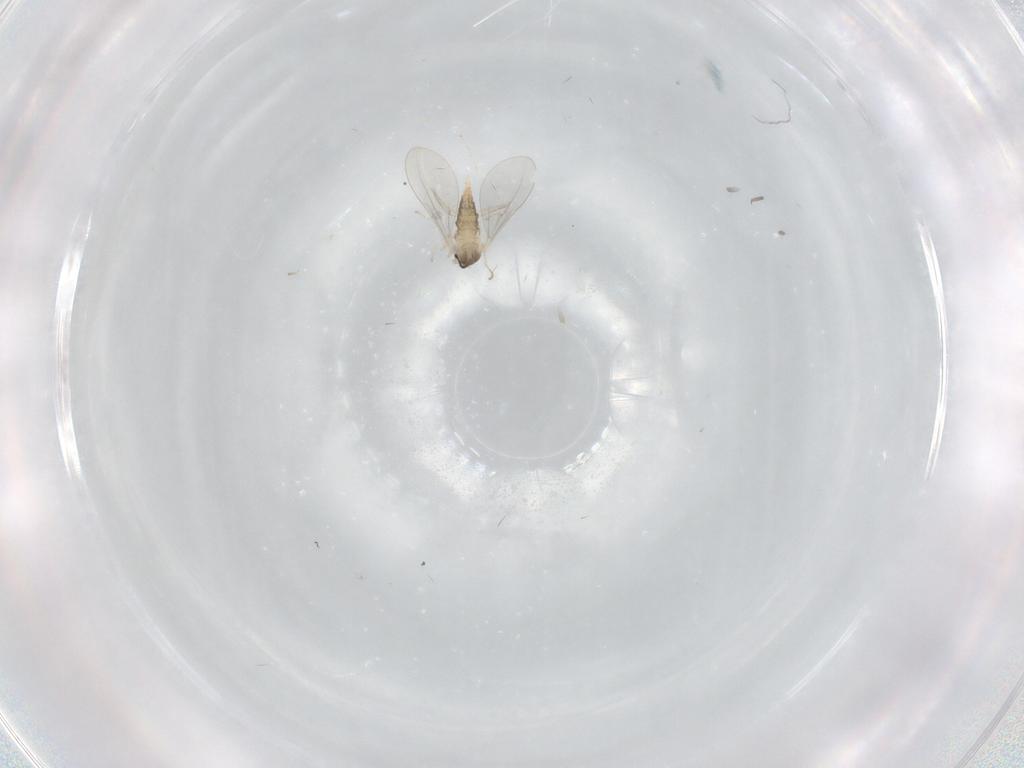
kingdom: Animalia
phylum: Arthropoda
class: Insecta
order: Diptera
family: Cecidomyiidae
